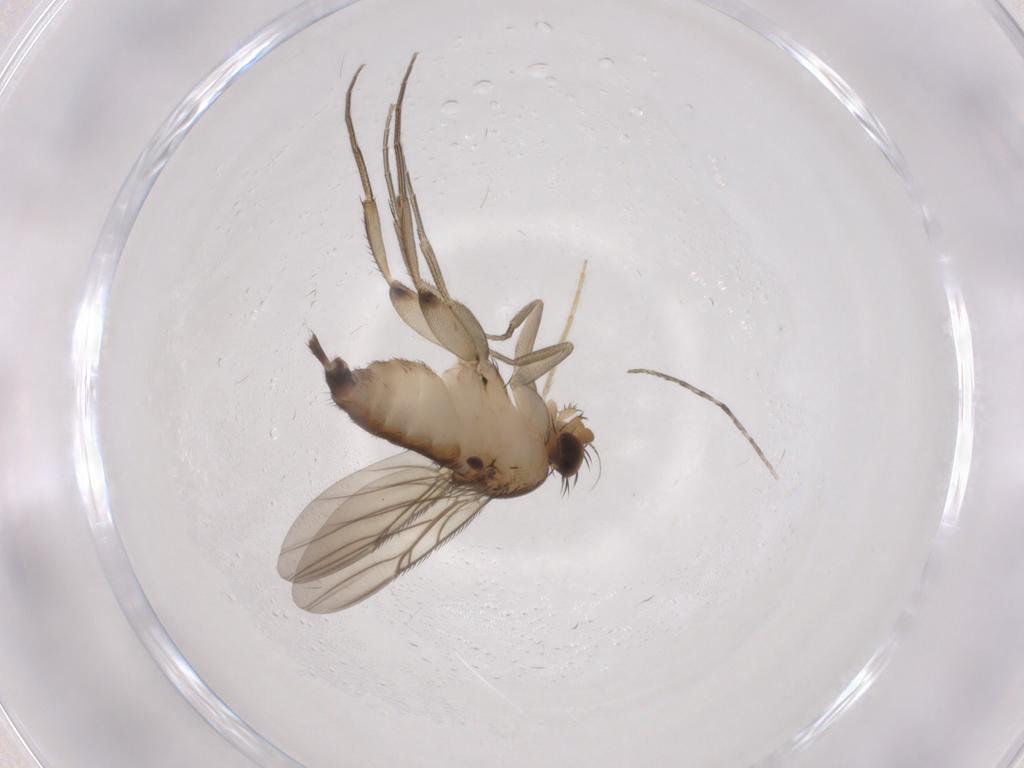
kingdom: Animalia
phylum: Arthropoda
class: Insecta
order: Diptera
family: Phoridae
